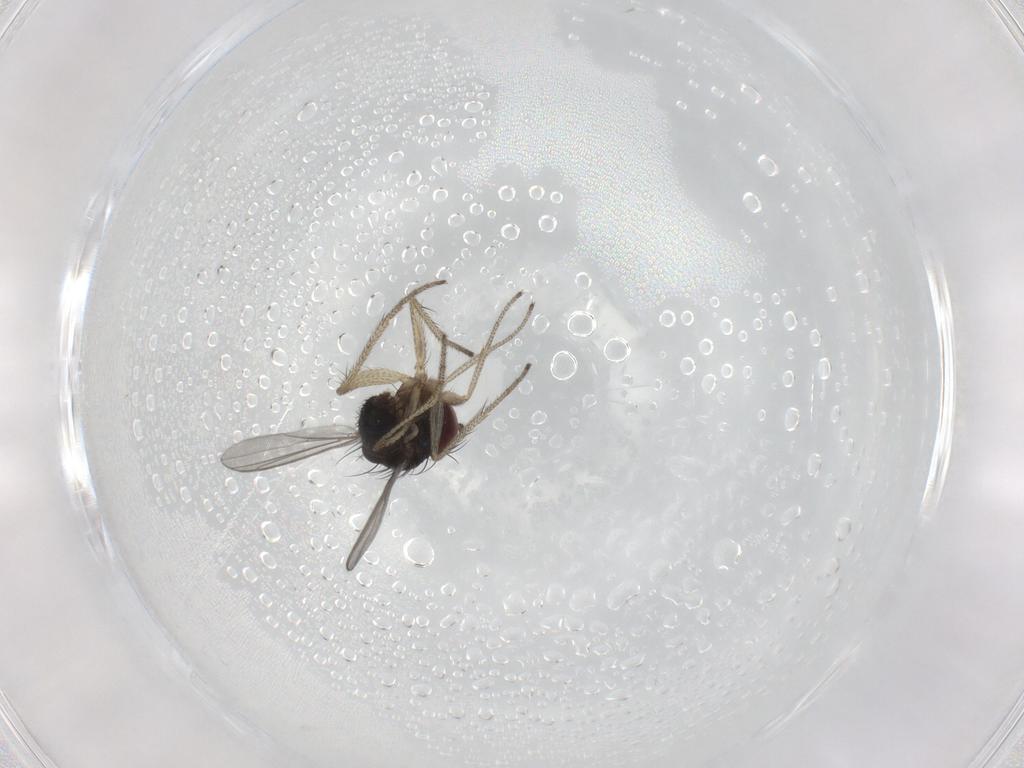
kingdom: Animalia
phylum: Arthropoda
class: Insecta
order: Diptera
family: Dolichopodidae
